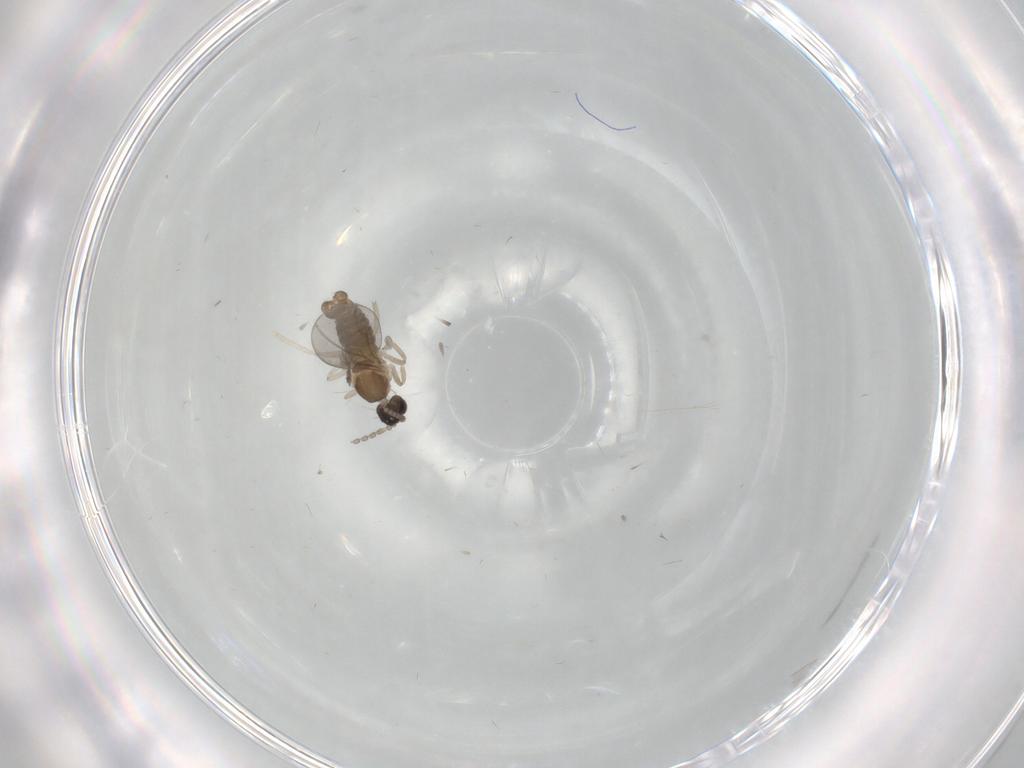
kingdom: Animalia
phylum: Arthropoda
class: Insecta
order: Diptera
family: Cecidomyiidae
